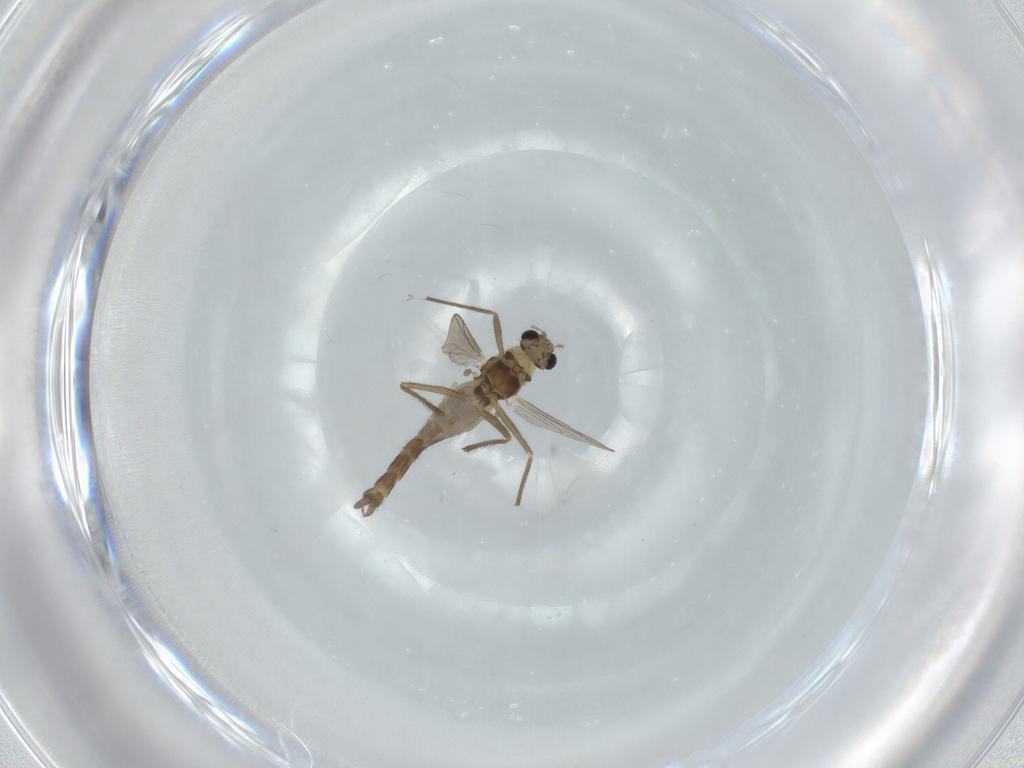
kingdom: Animalia
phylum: Arthropoda
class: Insecta
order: Diptera
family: Chironomidae
